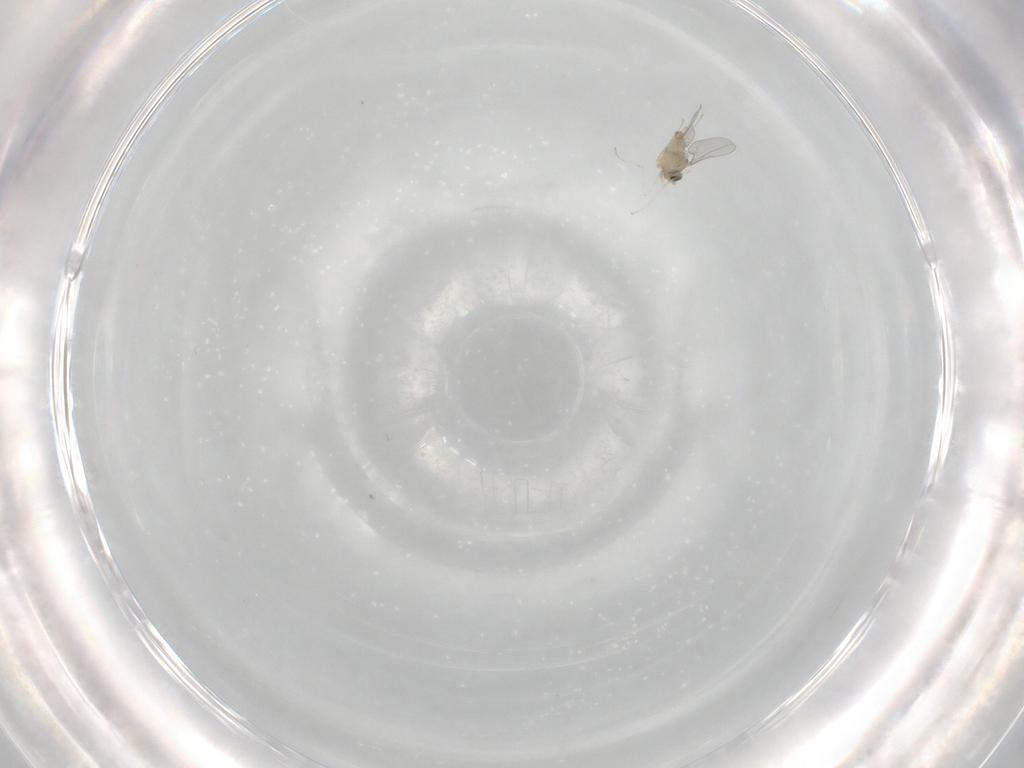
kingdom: Animalia
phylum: Arthropoda
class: Insecta
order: Diptera
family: Cecidomyiidae
